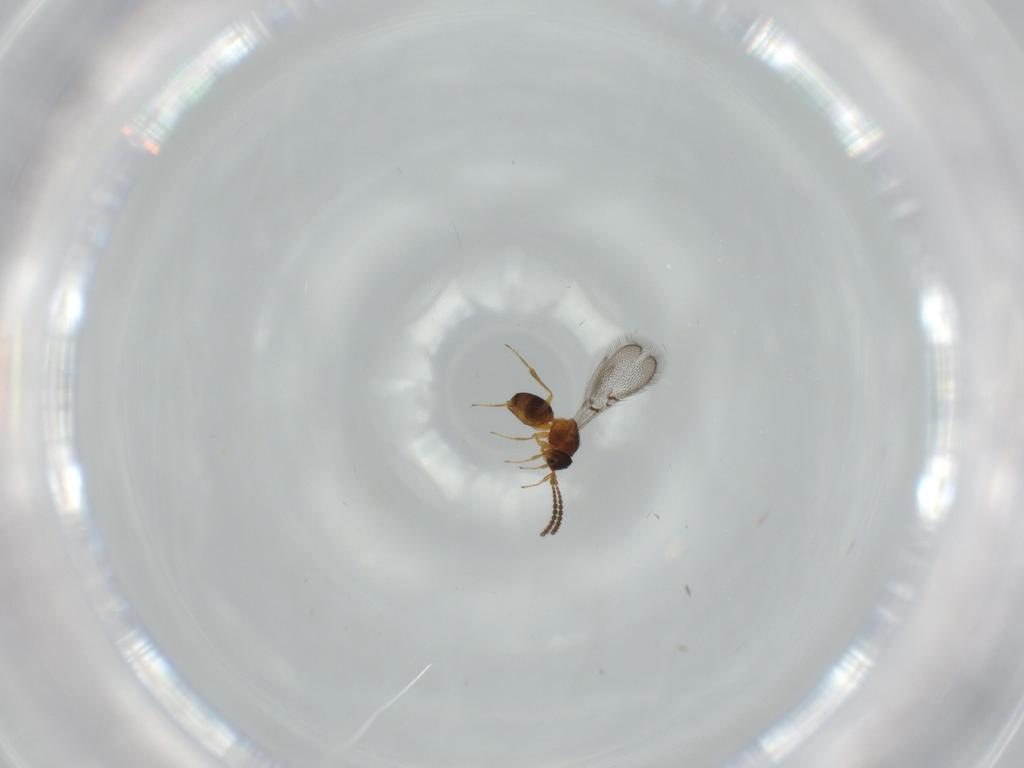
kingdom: Animalia
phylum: Arthropoda
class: Insecta
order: Hymenoptera
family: Figitidae
